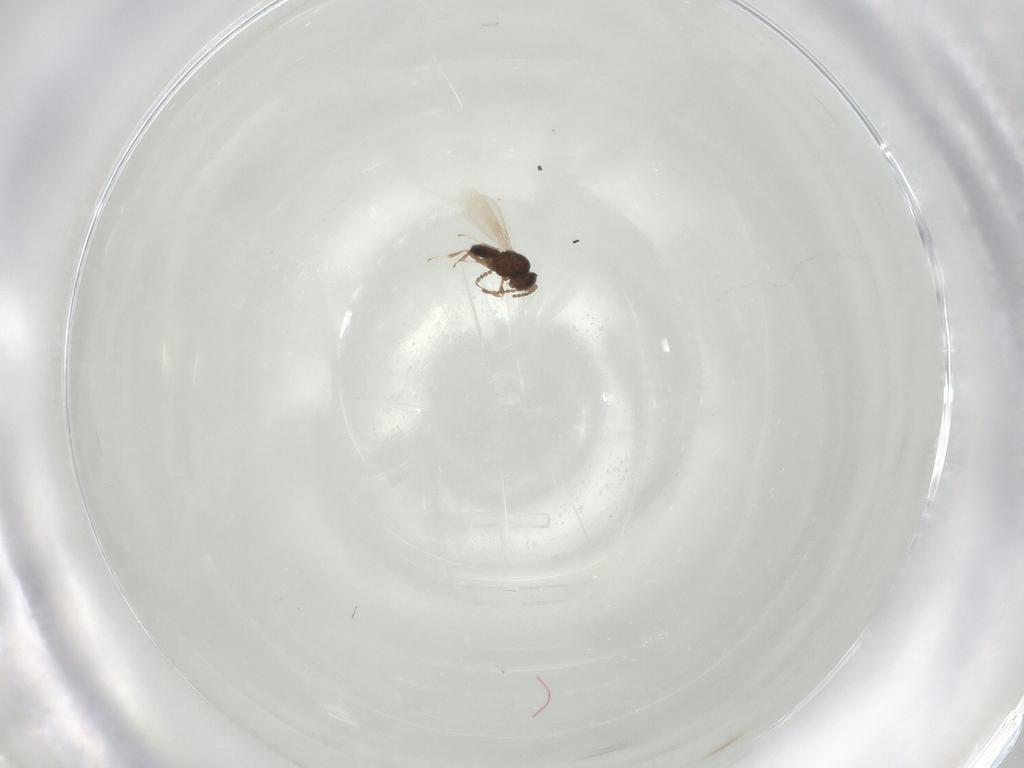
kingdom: Animalia
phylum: Arthropoda
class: Insecta
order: Hymenoptera
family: Scelionidae
